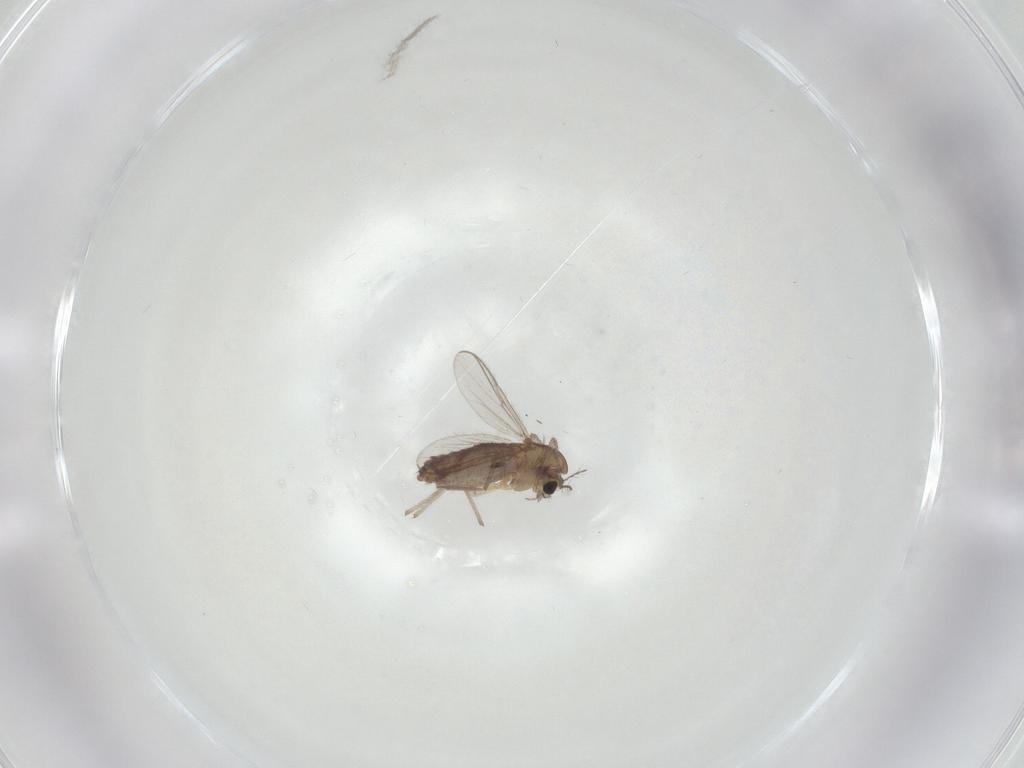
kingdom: Animalia
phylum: Arthropoda
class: Insecta
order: Diptera
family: Chironomidae
